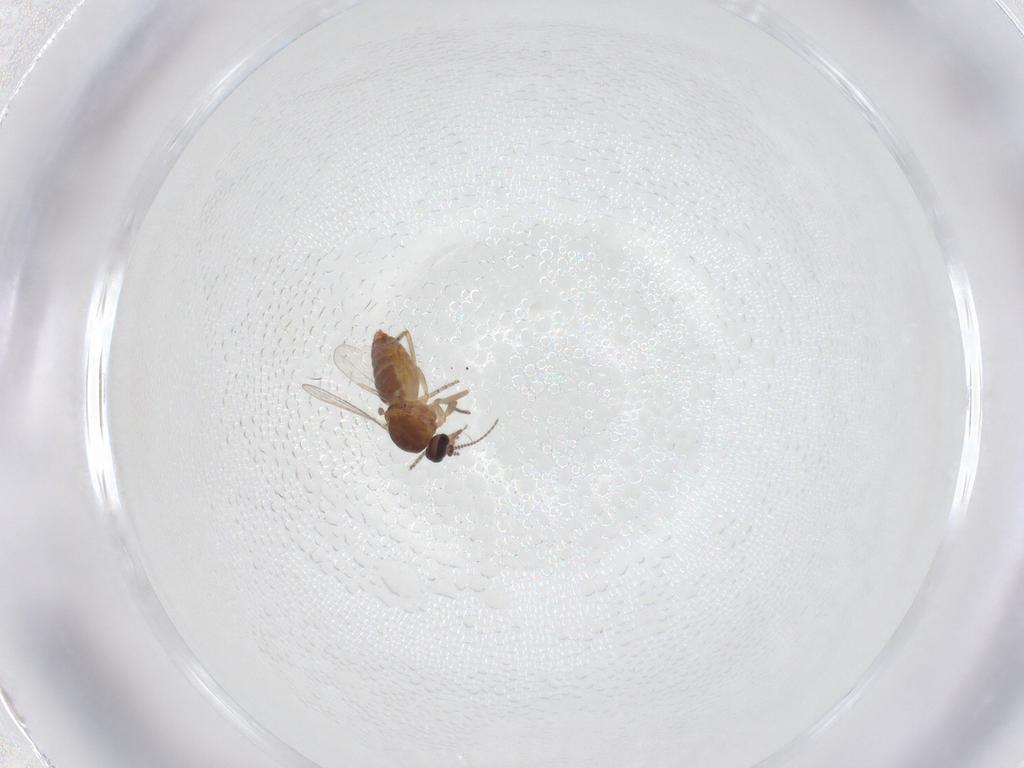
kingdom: Animalia
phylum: Arthropoda
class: Insecta
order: Diptera
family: Ceratopogonidae
